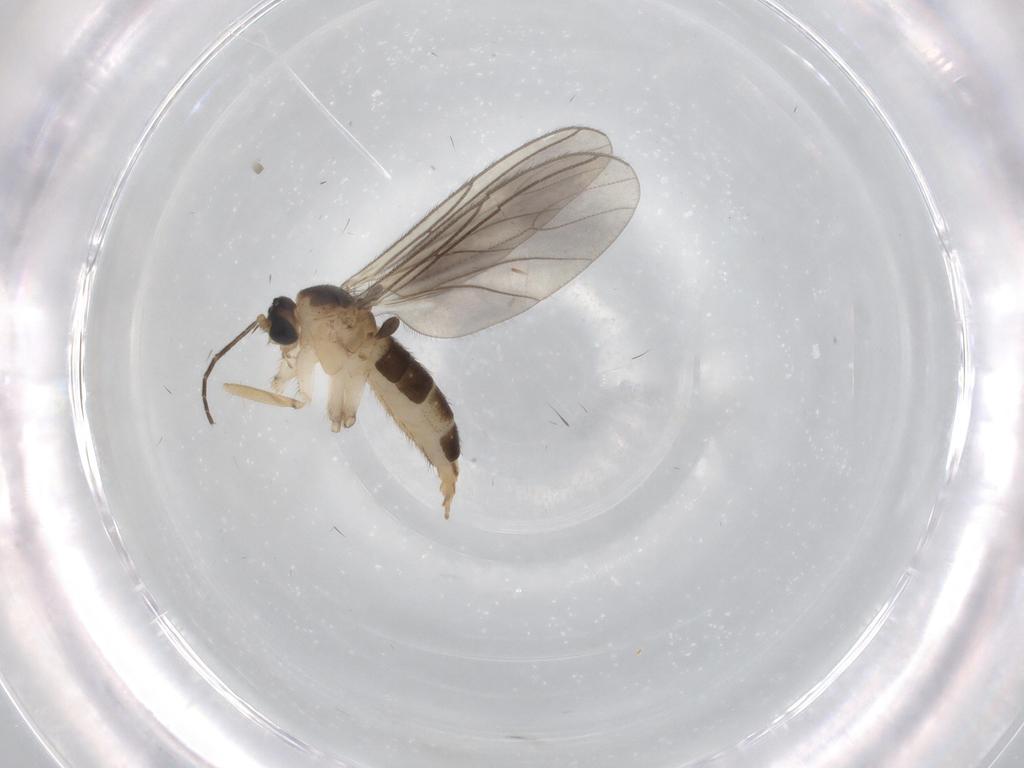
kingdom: Animalia
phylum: Arthropoda
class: Insecta
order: Diptera
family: Sciaridae
